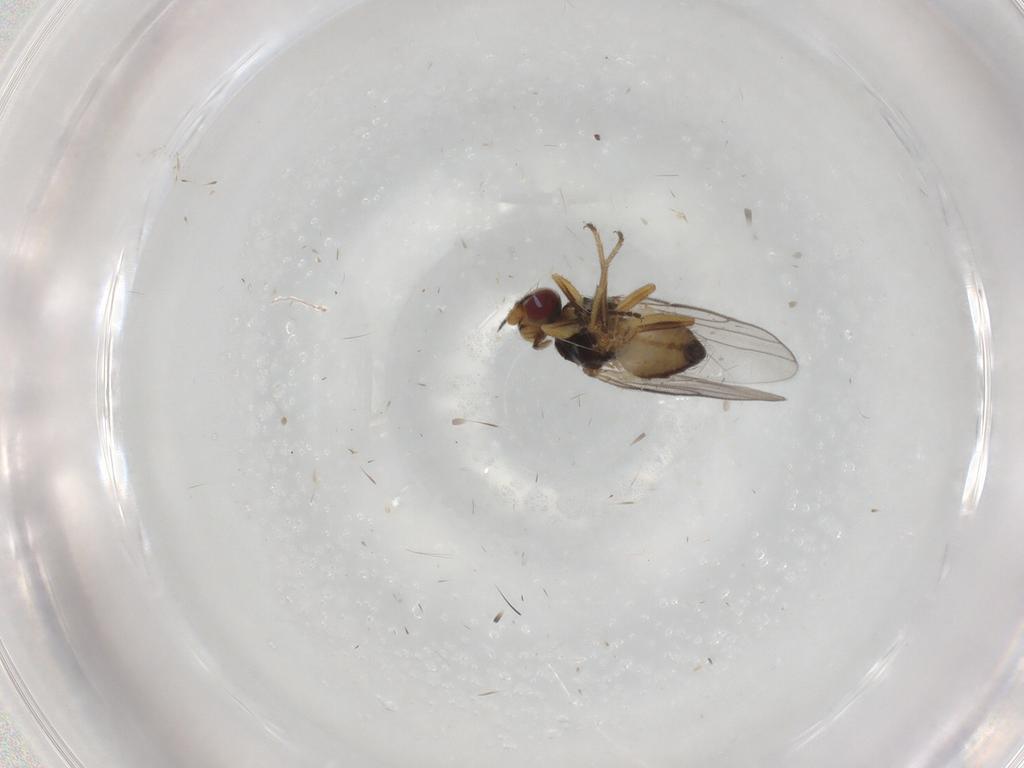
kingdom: Animalia
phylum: Arthropoda
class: Insecta
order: Diptera
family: Chloropidae
